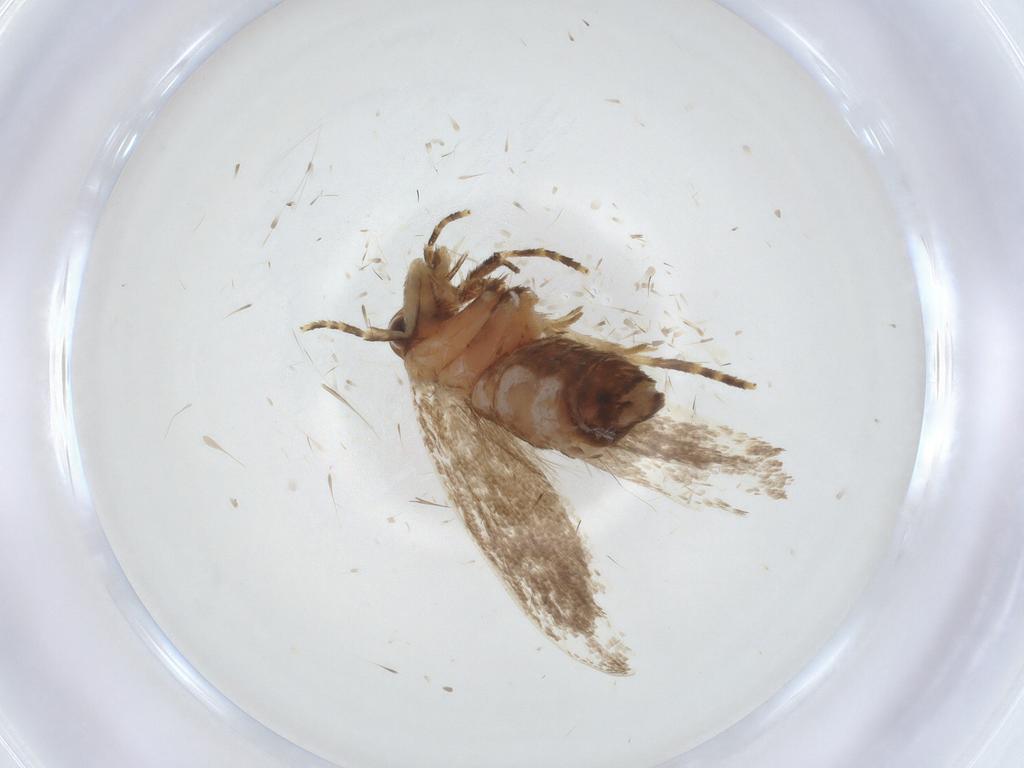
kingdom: Animalia
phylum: Arthropoda
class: Insecta
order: Lepidoptera
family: Oecophoridae
